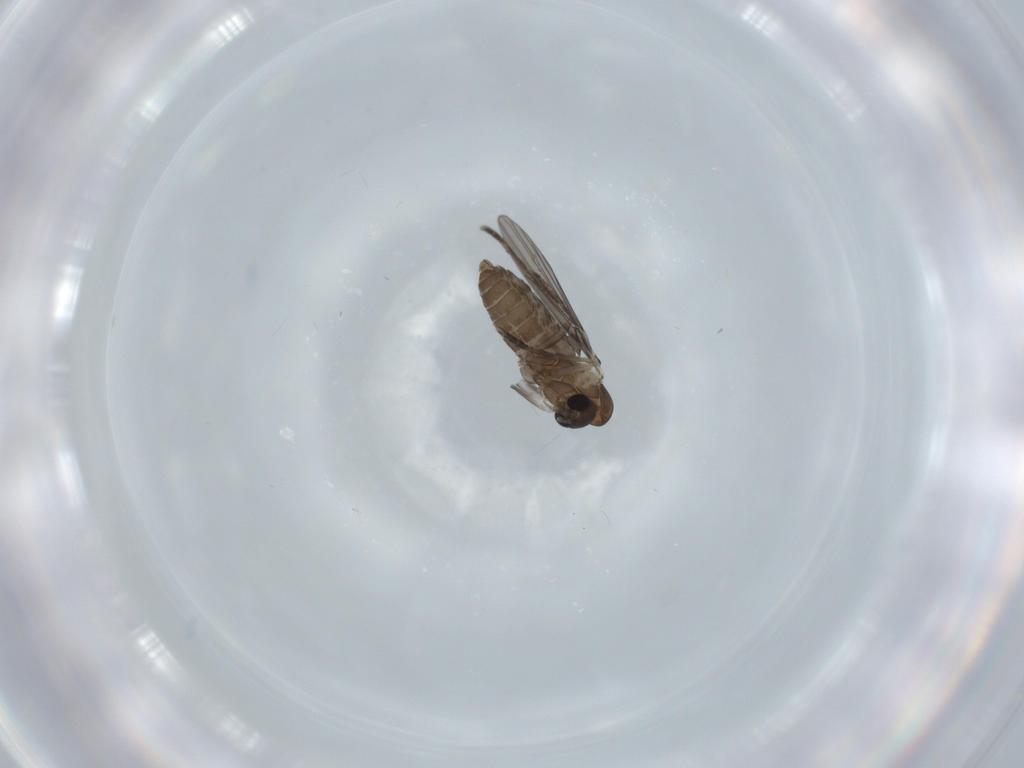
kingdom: Animalia
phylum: Arthropoda
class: Insecta
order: Diptera
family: Psychodidae
